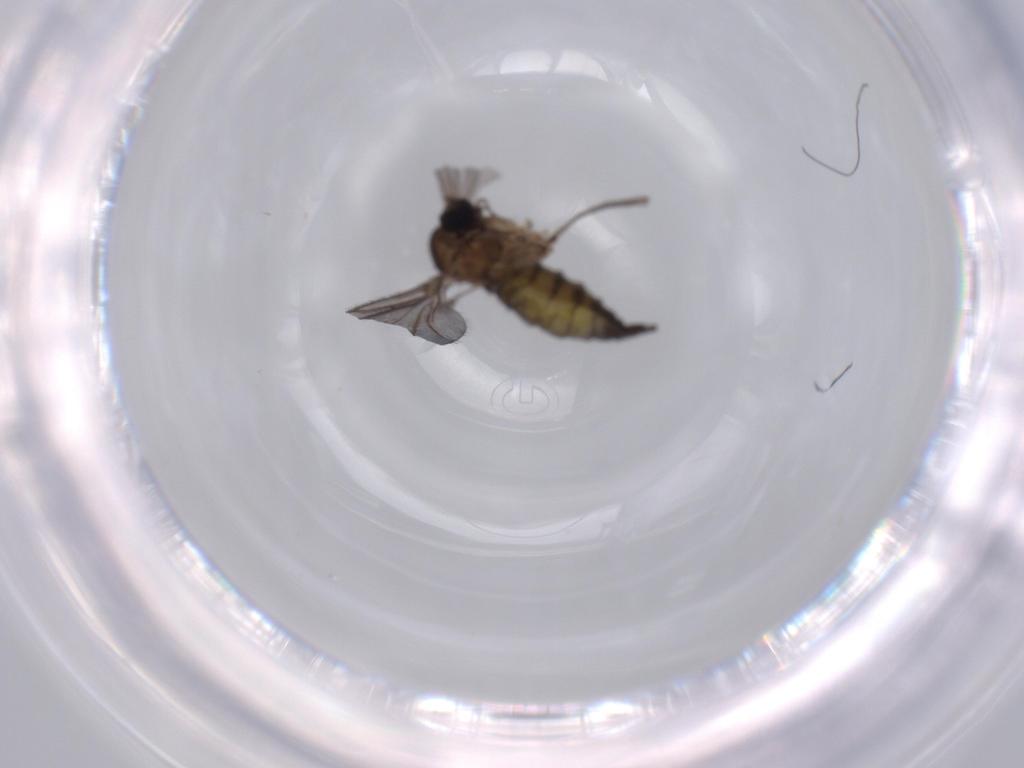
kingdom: Animalia
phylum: Arthropoda
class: Insecta
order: Diptera
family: Sciaridae
